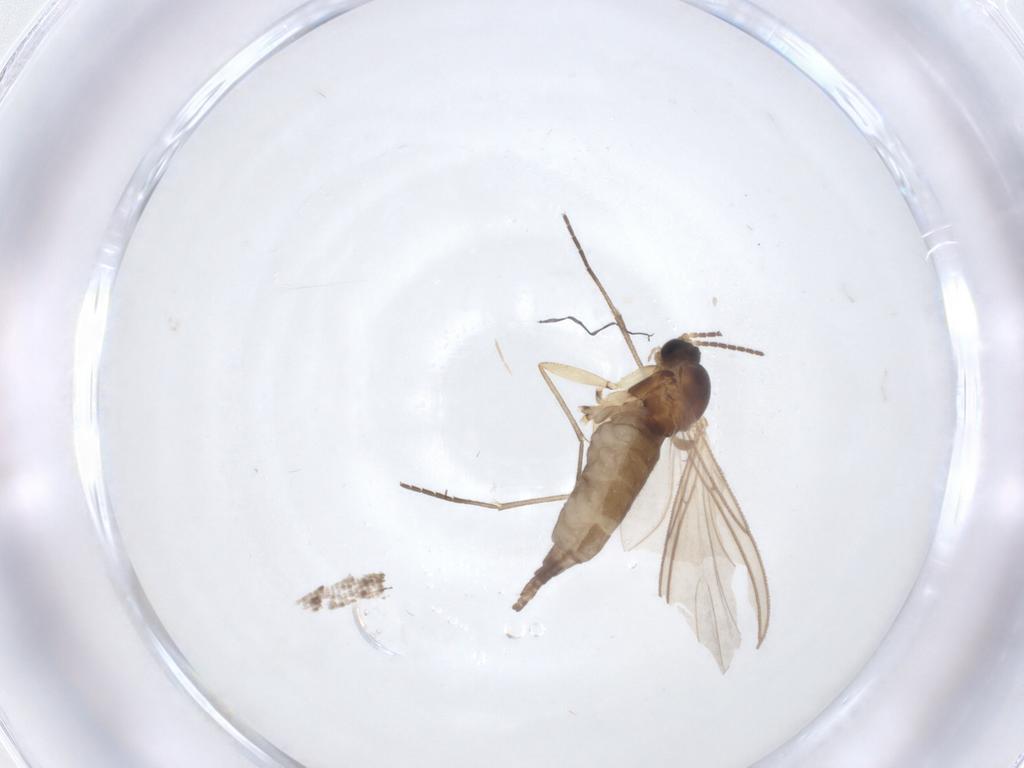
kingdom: Animalia
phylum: Arthropoda
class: Insecta
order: Diptera
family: Sciaridae
